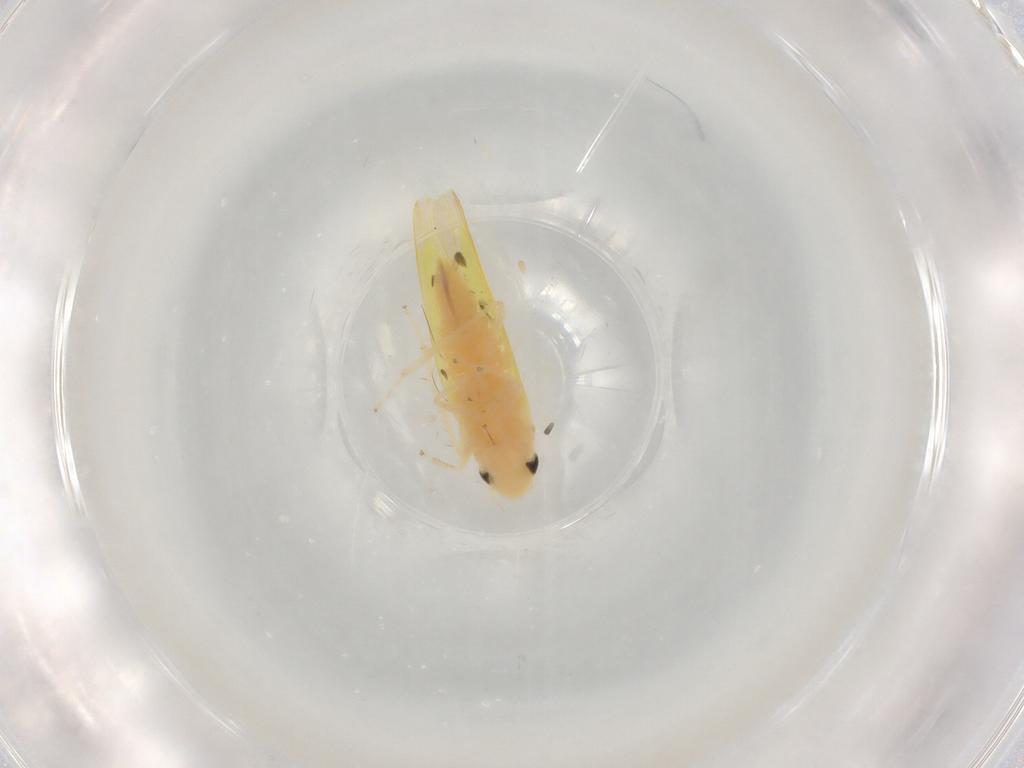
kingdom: Animalia
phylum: Arthropoda
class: Insecta
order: Hemiptera
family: Cicadellidae
